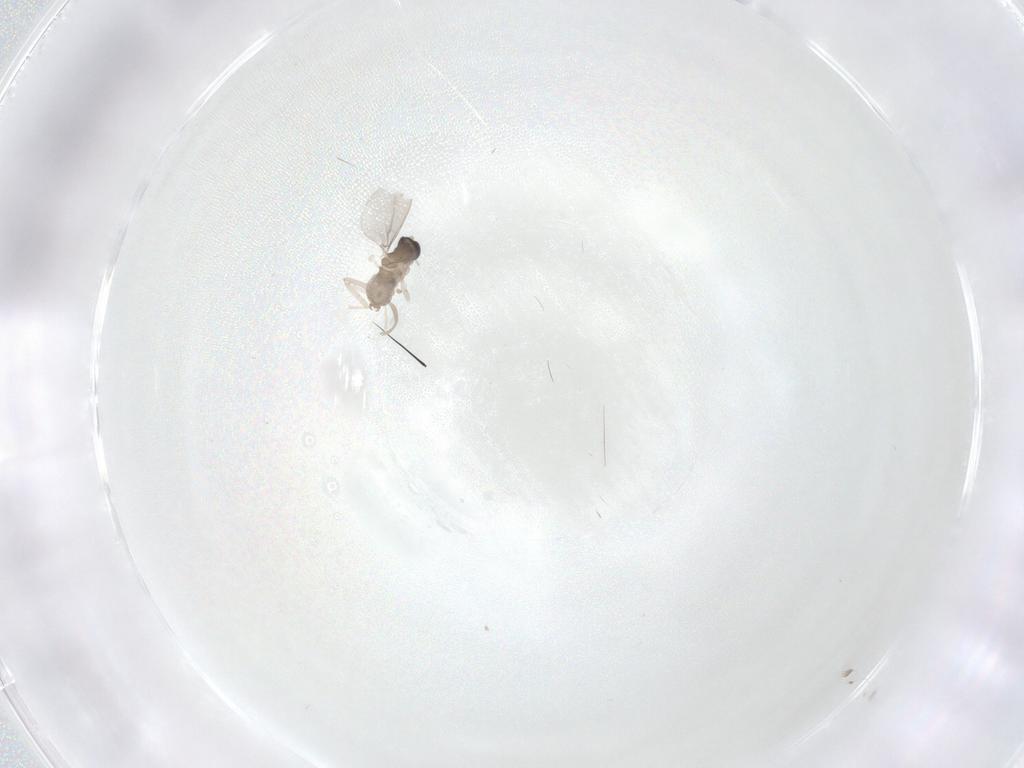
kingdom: Animalia
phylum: Arthropoda
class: Insecta
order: Diptera
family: Cecidomyiidae
